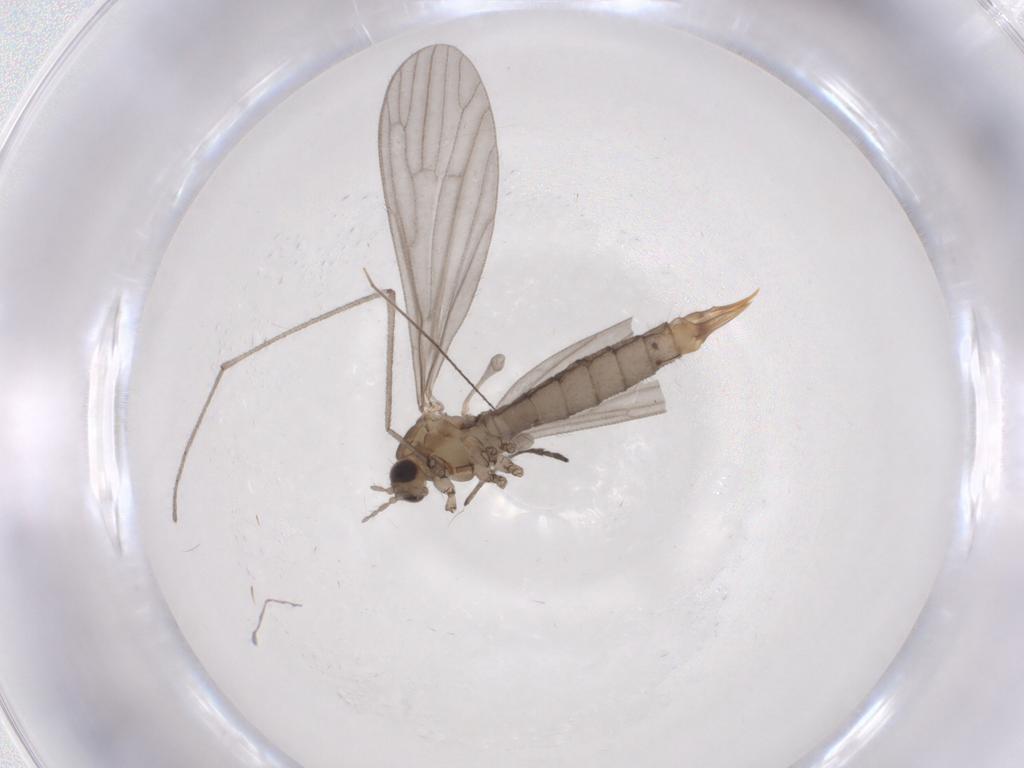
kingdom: Animalia
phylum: Arthropoda
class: Insecta
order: Diptera
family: Limoniidae
